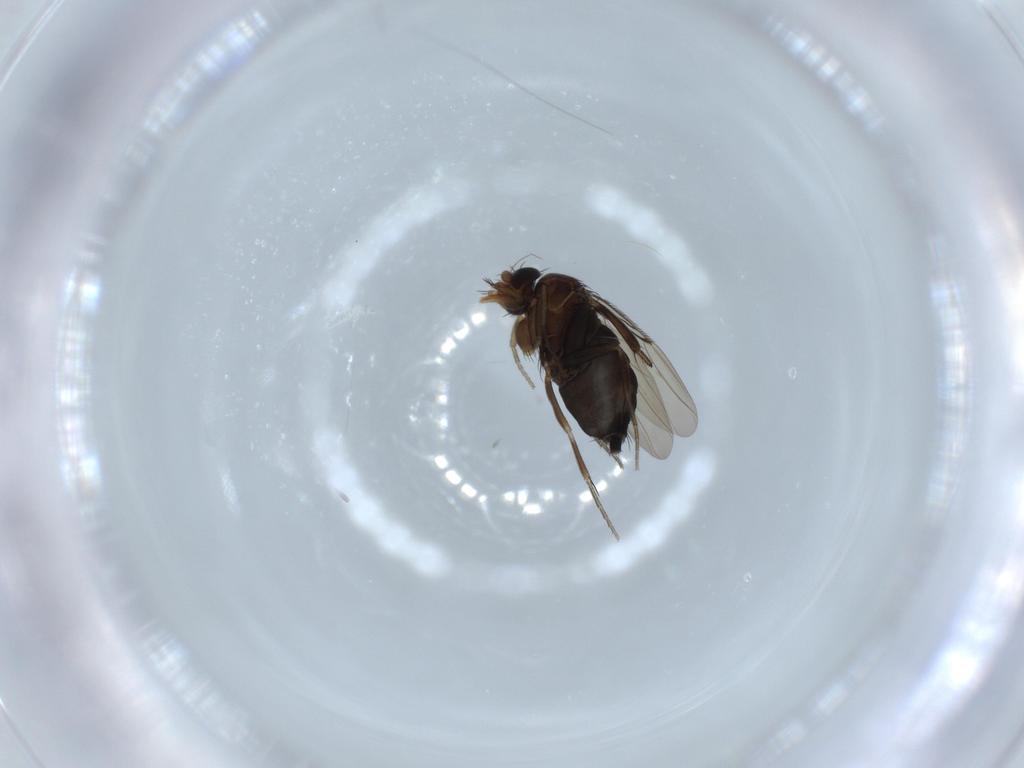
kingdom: Animalia
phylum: Arthropoda
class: Insecta
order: Diptera
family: Phoridae
